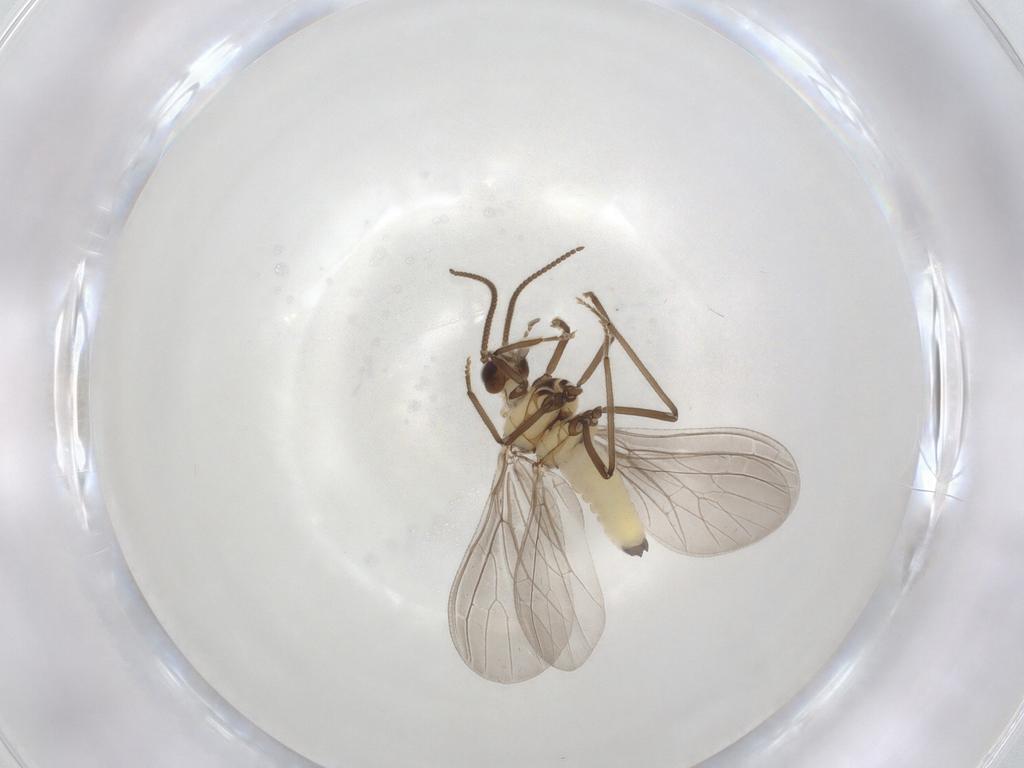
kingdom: Animalia
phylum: Arthropoda
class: Insecta
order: Neuroptera
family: Coniopterygidae
